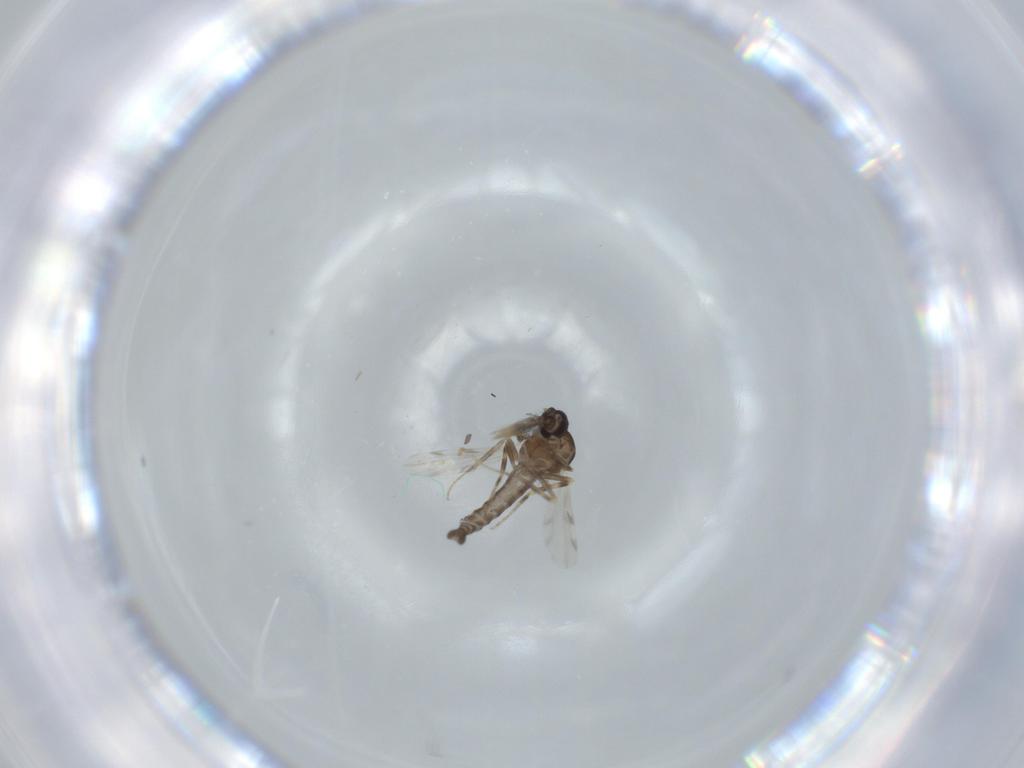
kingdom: Animalia
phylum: Arthropoda
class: Insecta
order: Diptera
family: Ceratopogonidae
